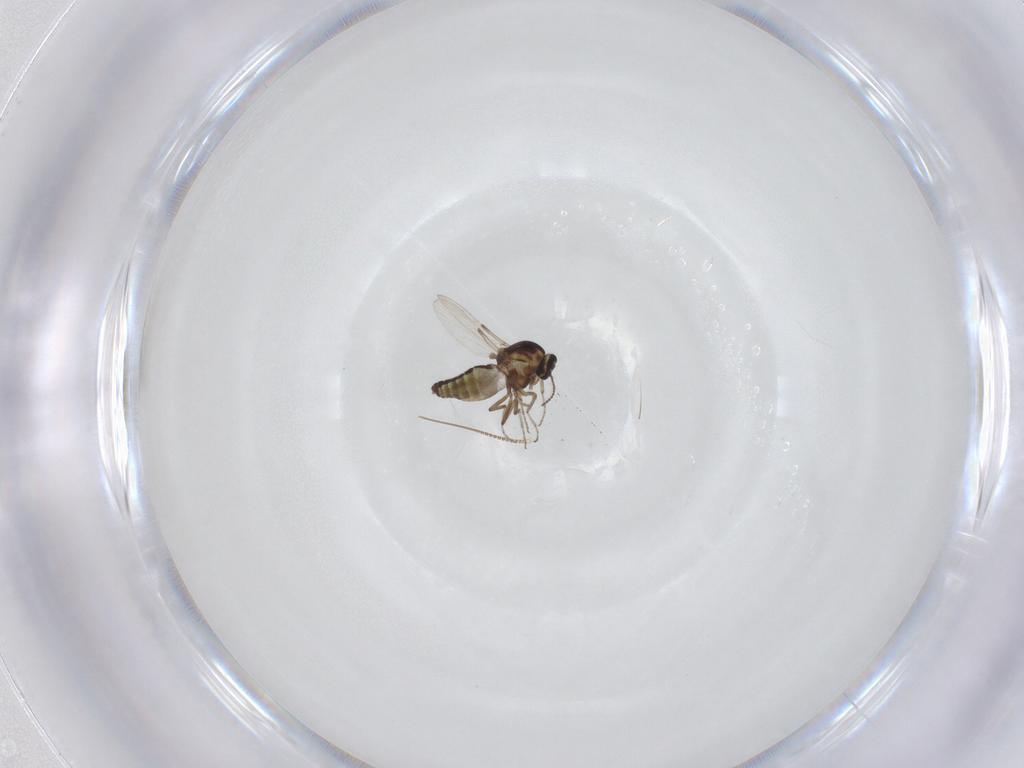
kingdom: Animalia
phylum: Arthropoda
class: Insecta
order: Diptera
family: Ceratopogonidae
